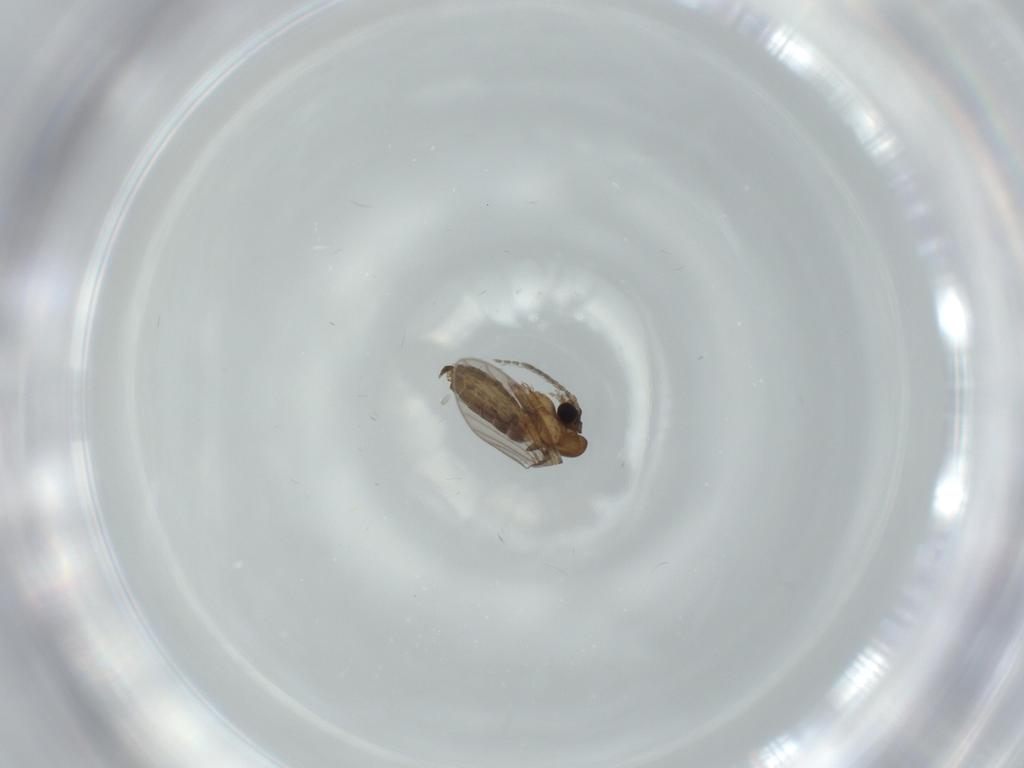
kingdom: Animalia
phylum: Arthropoda
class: Insecta
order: Diptera
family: Psychodidae
